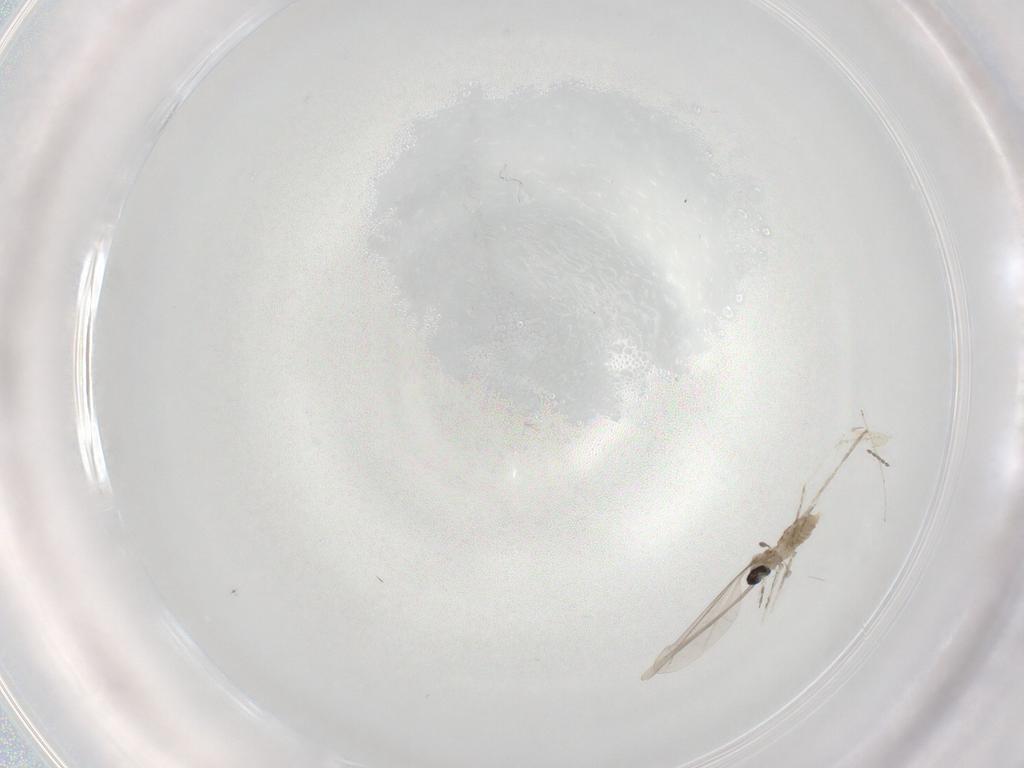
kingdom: Animalia
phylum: Arthropoda
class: Insecta
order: Diptera
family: Cecidomyiidae
